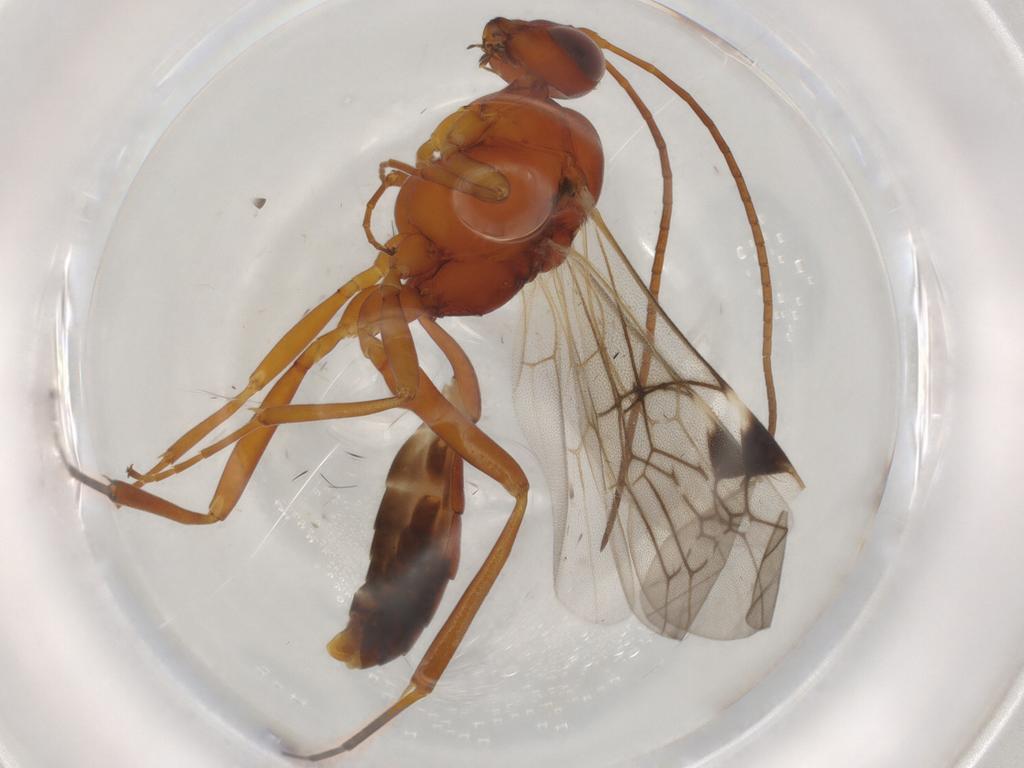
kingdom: Animalia
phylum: Arthropoda
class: Insecta
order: Hymenoptera
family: Ichneumonidae
